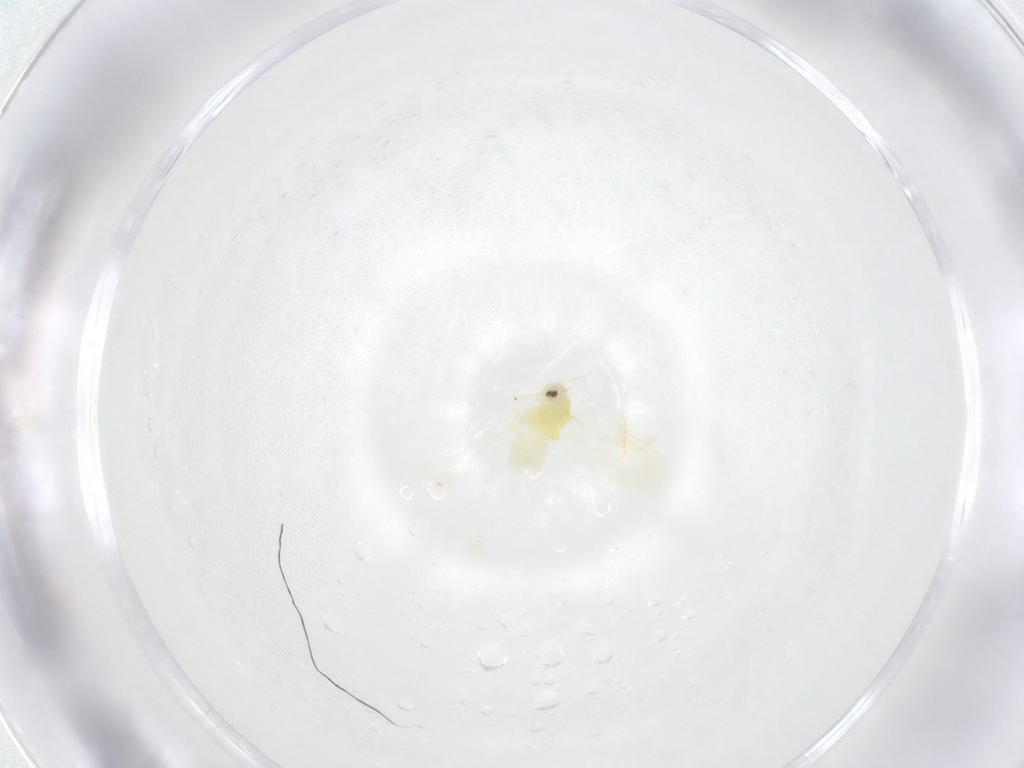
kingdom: Animalia
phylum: Arthropoda
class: Insecta
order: Hemiptera
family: Aleyrodidae
